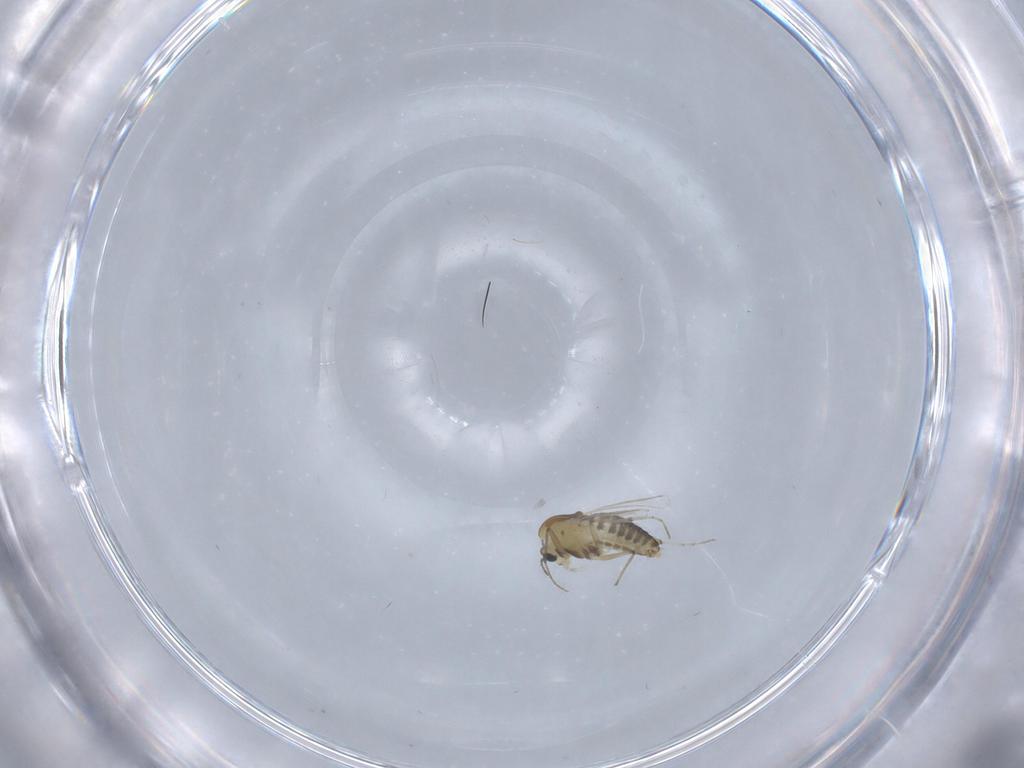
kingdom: Animalia
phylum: Arthropoda
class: Insecta
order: Diptera
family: Chironomidae
